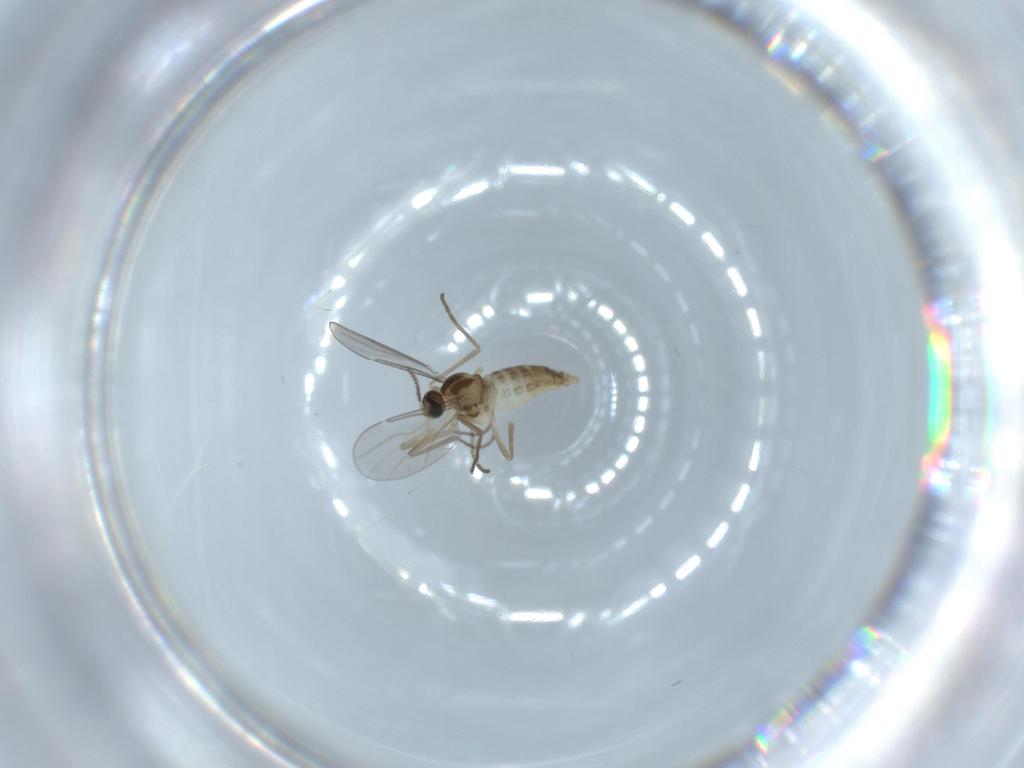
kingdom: Animalia
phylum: Arthropoda
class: Insecta
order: Diptera
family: Cecidomyiidae
